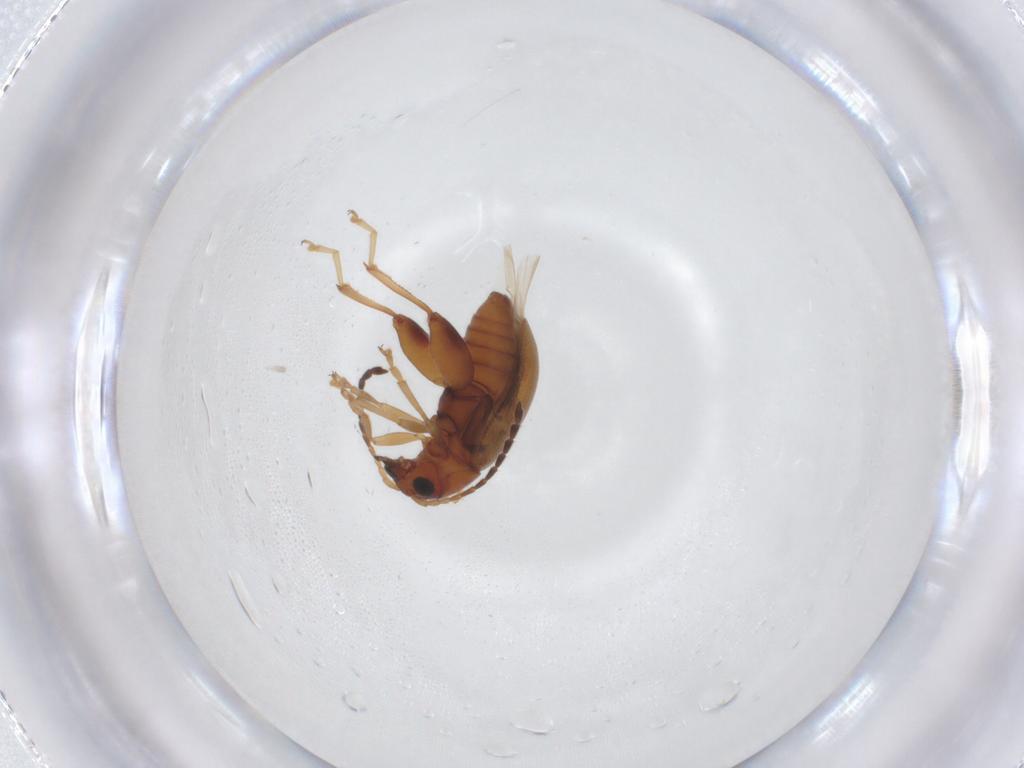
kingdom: Animalia
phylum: Arthropoda
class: Insecta
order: Coleoptera
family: Chrysomelidae
